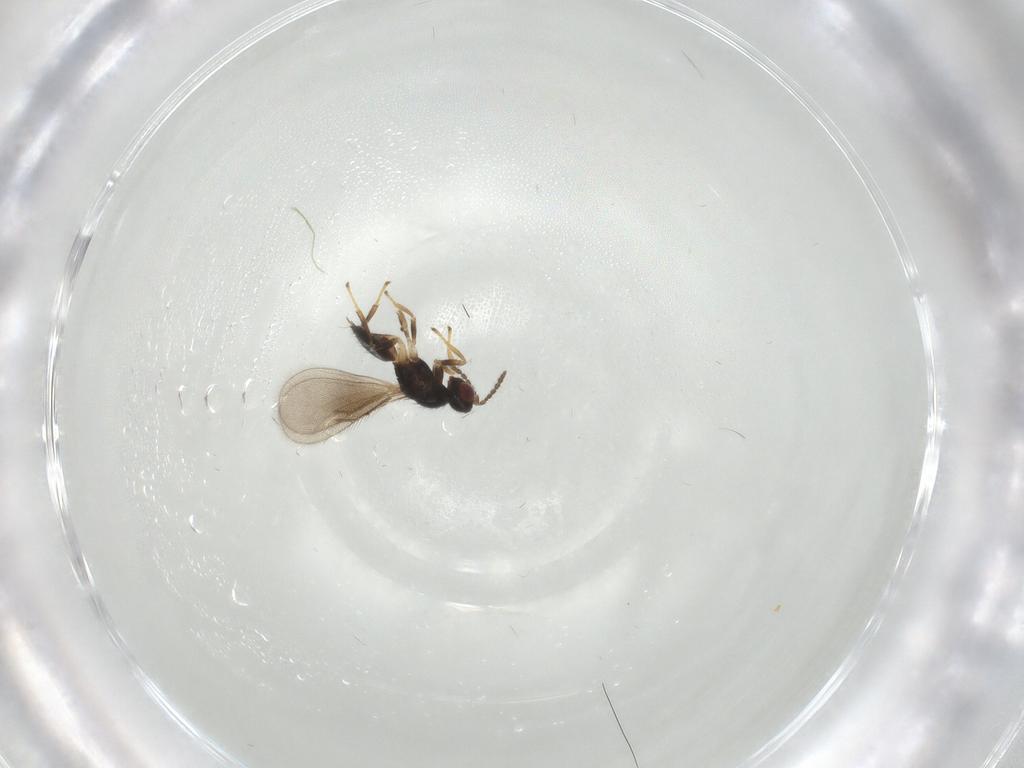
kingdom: Animalia
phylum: Arthropoda
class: Insecta
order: Hymenoptera
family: Eulophidae
